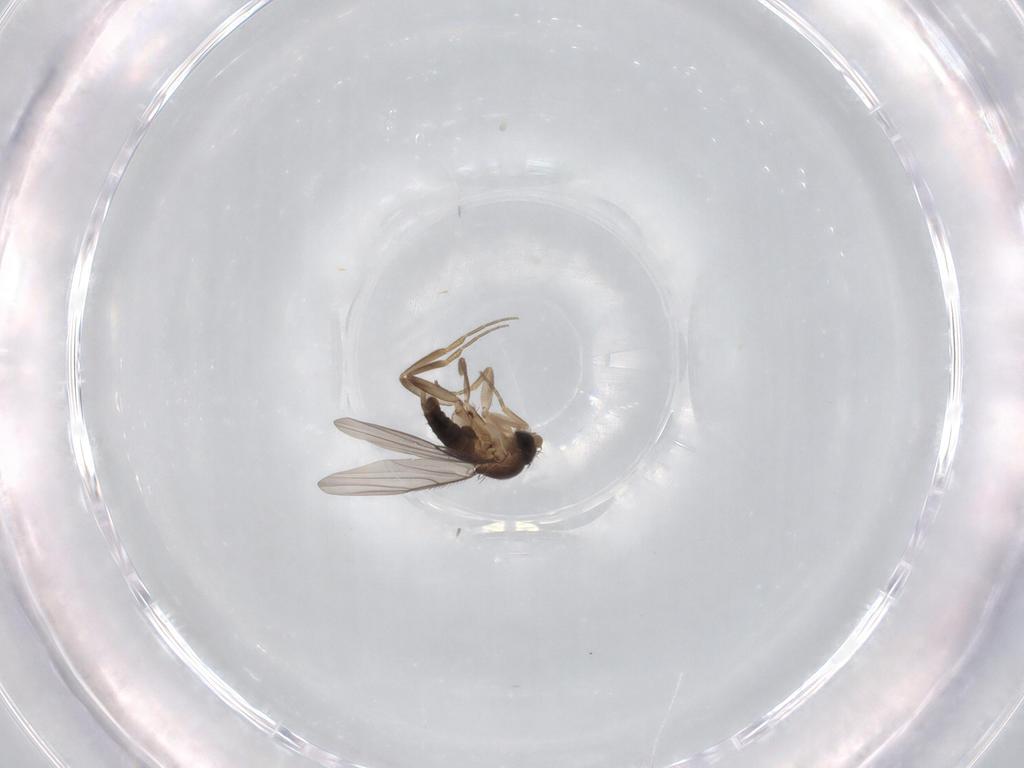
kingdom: Animalia
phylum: Arthropoda
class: Insecta
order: Diptera
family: Phoridae
